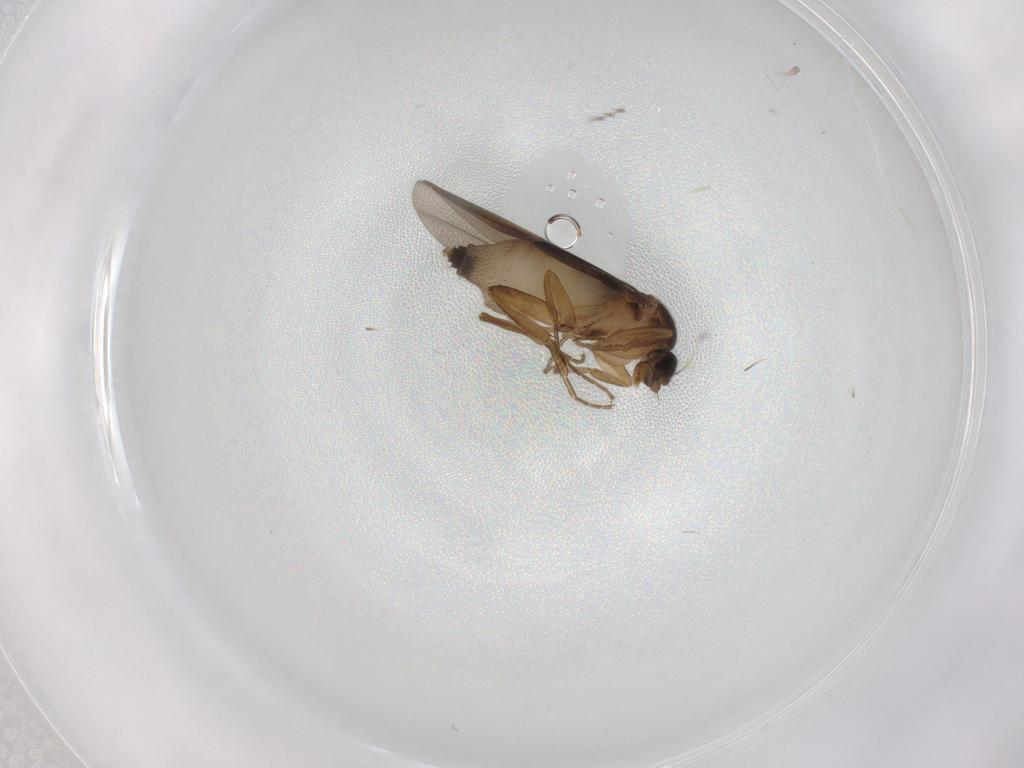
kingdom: Animalia
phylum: Arthropoda
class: Insecta
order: Diptera
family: Phoridae
